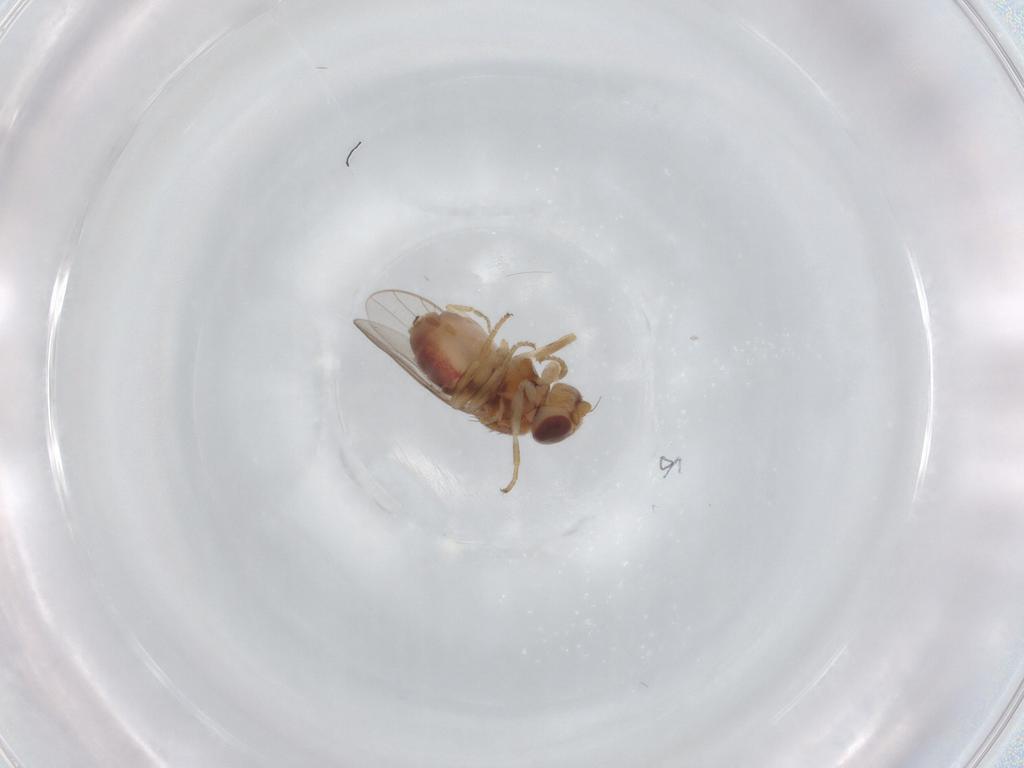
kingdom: Animalia
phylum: Arthropoda
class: Insecta
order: Diptera
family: Chloropidae
